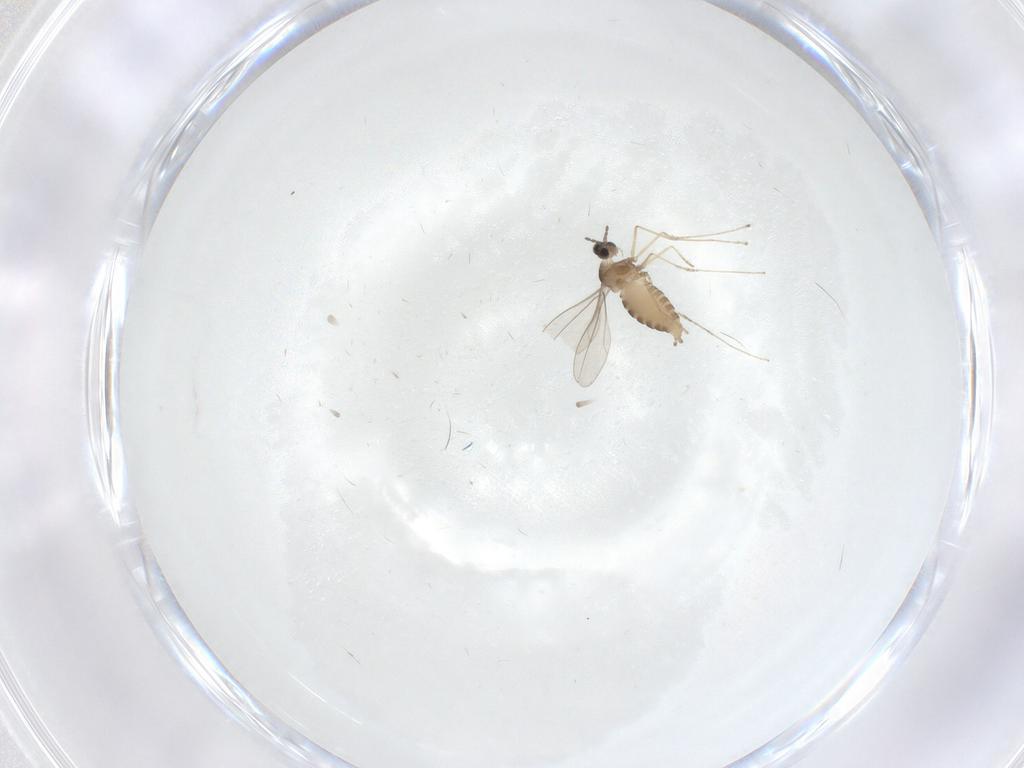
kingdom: Animalia
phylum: Arthropoda
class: Insecta
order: Diptera
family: Cecidomyiidae
